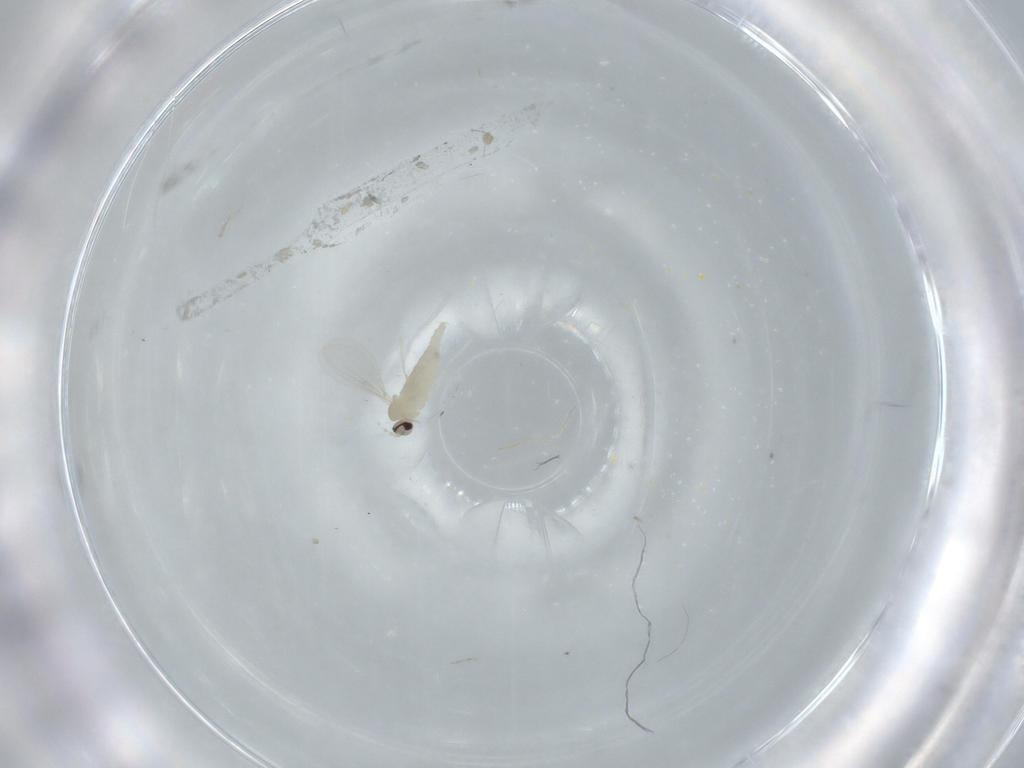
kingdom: Animalia
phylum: Arthropoda
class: Insecta
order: Diptera
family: Cecidomyiidae
